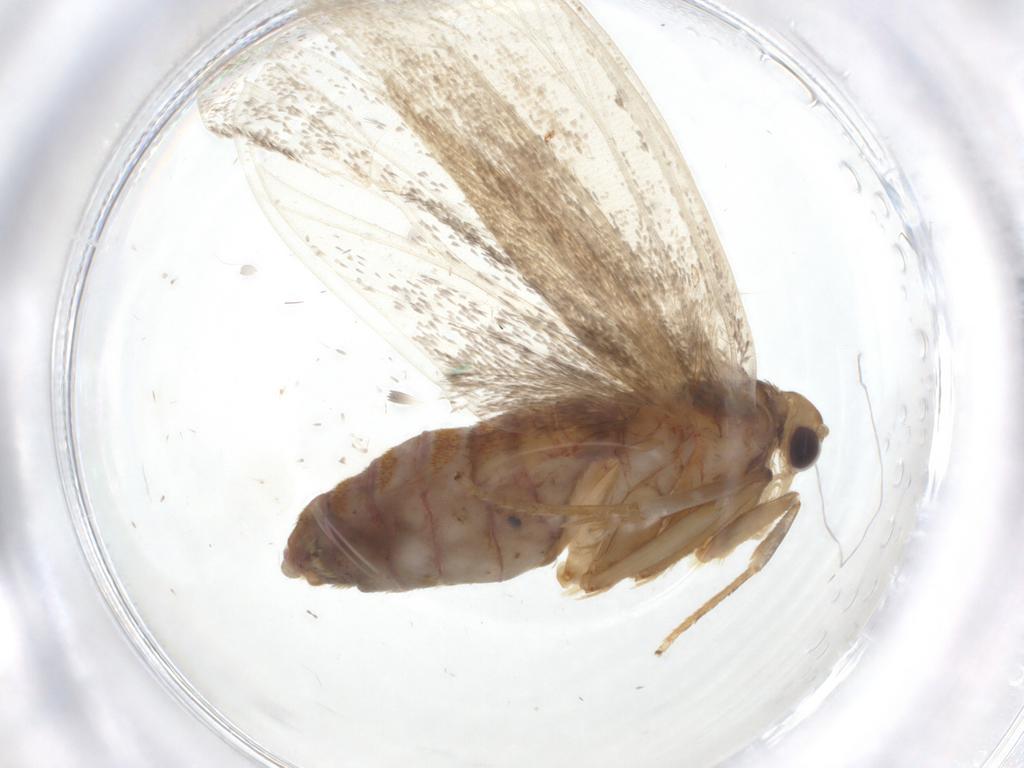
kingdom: Animalia
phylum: Arthropoda
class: Insecta
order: Lepidoptera
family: Lecithoceridae
